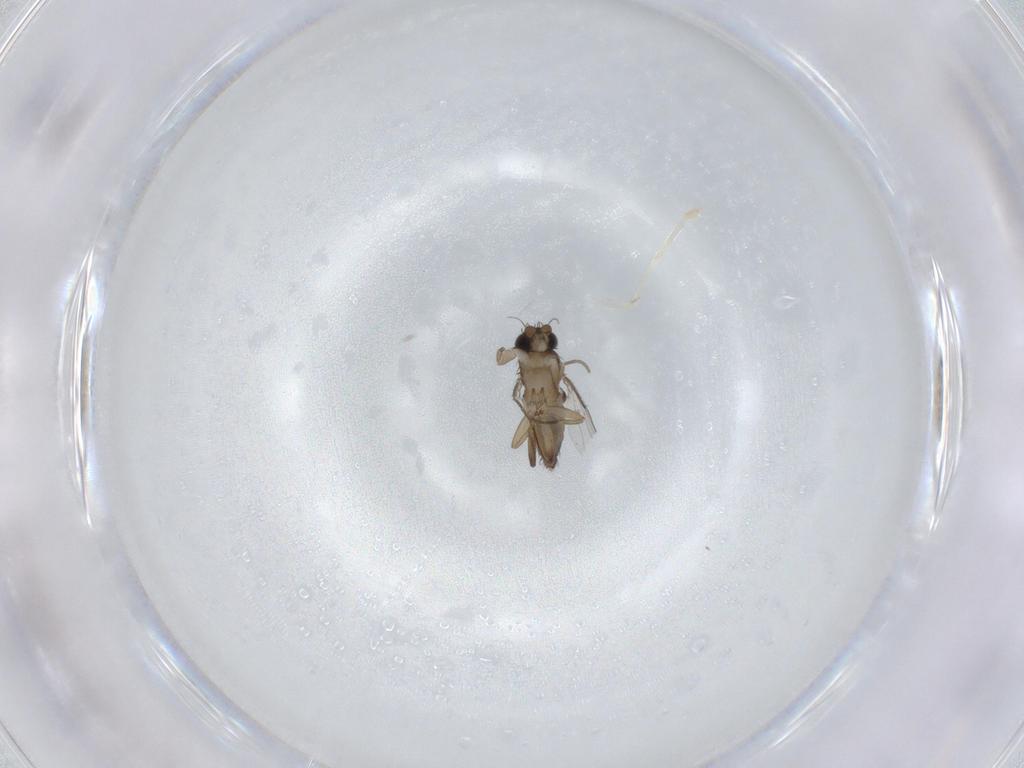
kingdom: Animalia
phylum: Arthropoda
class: Insecta
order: Diptera
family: Phoridae
